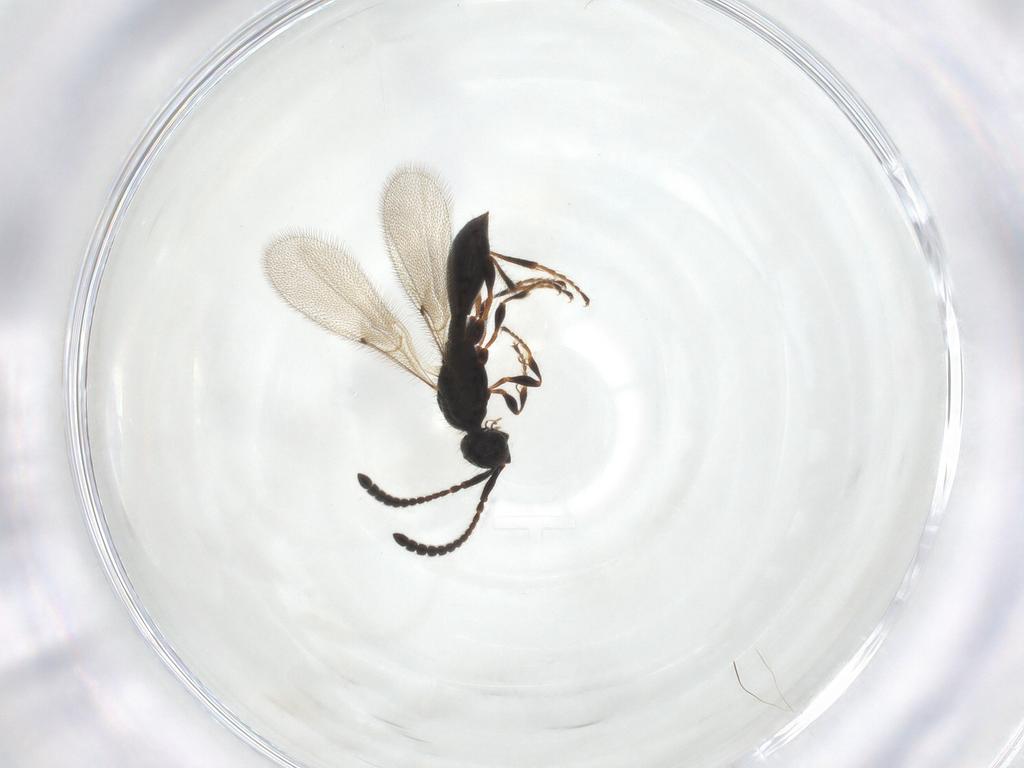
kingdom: Animalia
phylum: Arthropoda
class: Insecta
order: Hymenoptera
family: Diapriidae
